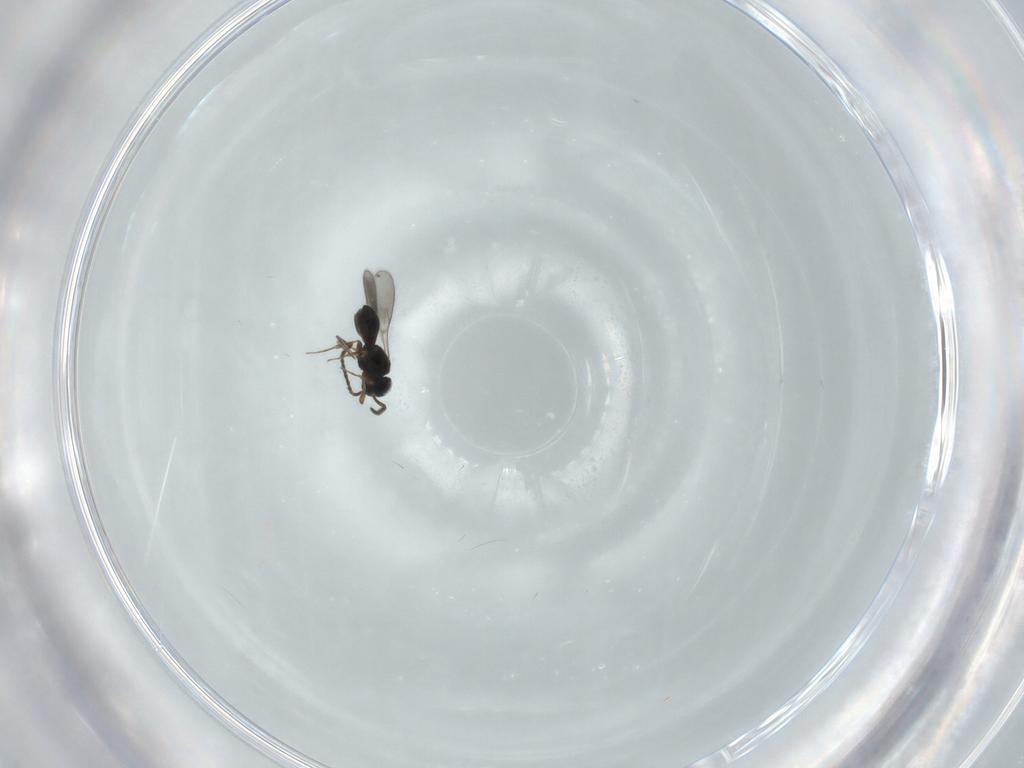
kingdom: Animalia
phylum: Arthropoda
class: Insecta
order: Hymenoptera
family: Scelionidae
